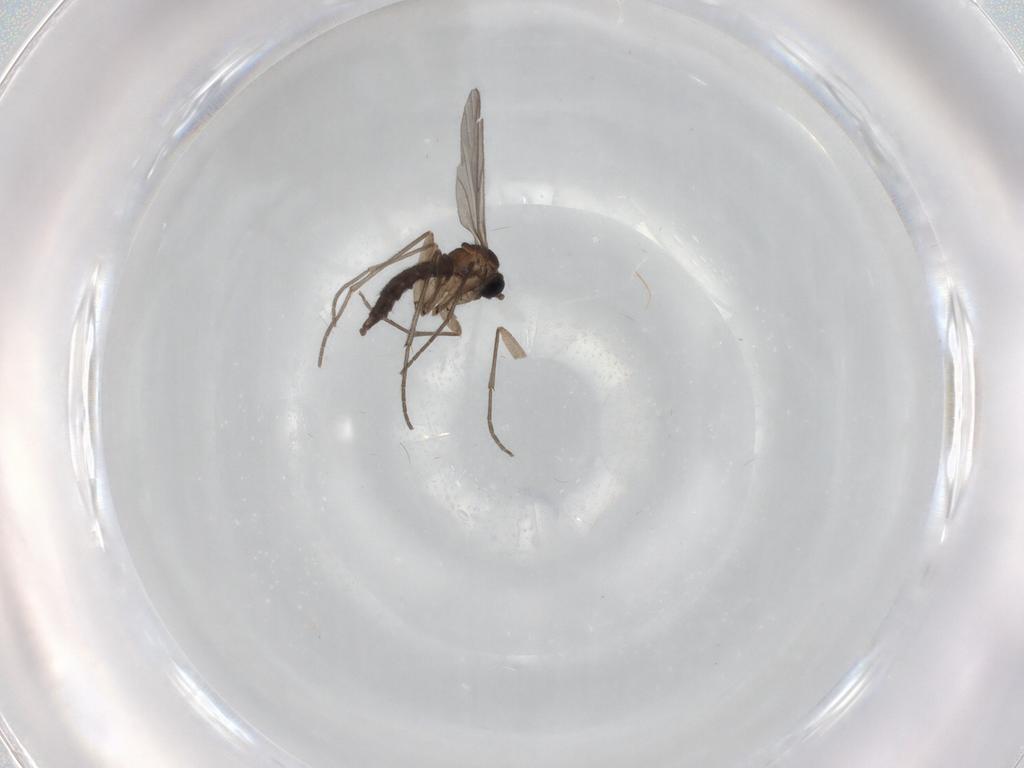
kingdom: Animalia
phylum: Arthropoda
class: Insecta
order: Diptera
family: Sciaridae
